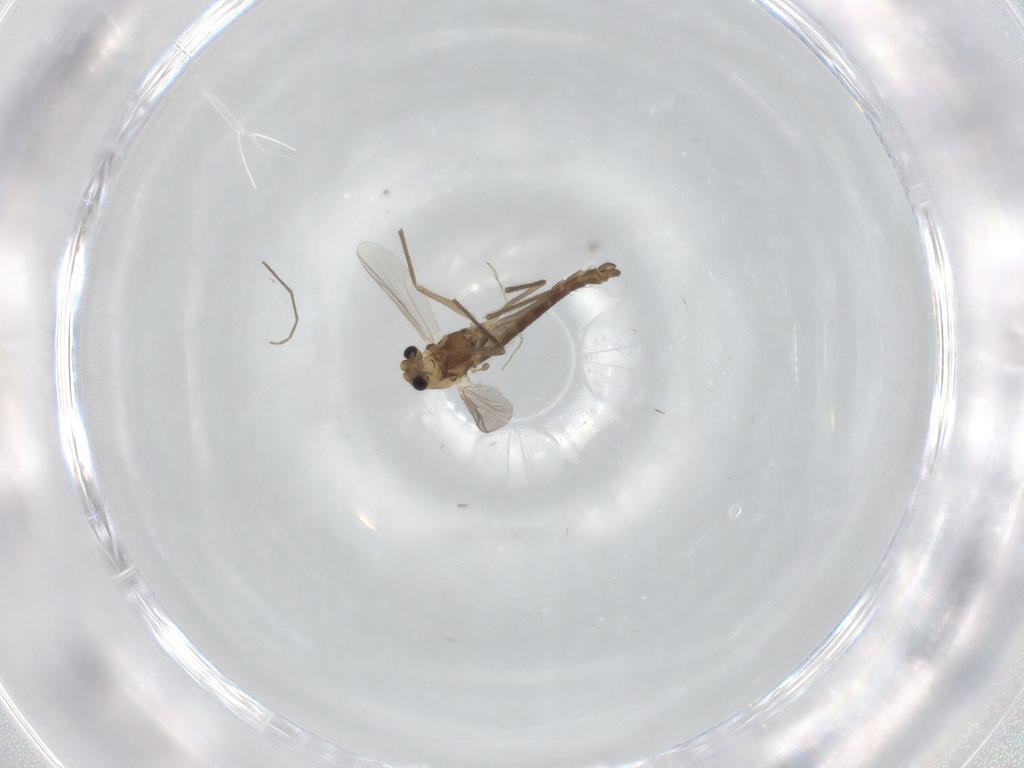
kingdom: Animalia
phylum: Arthropoda
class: Insecta
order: Diptera
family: Chironomidae
